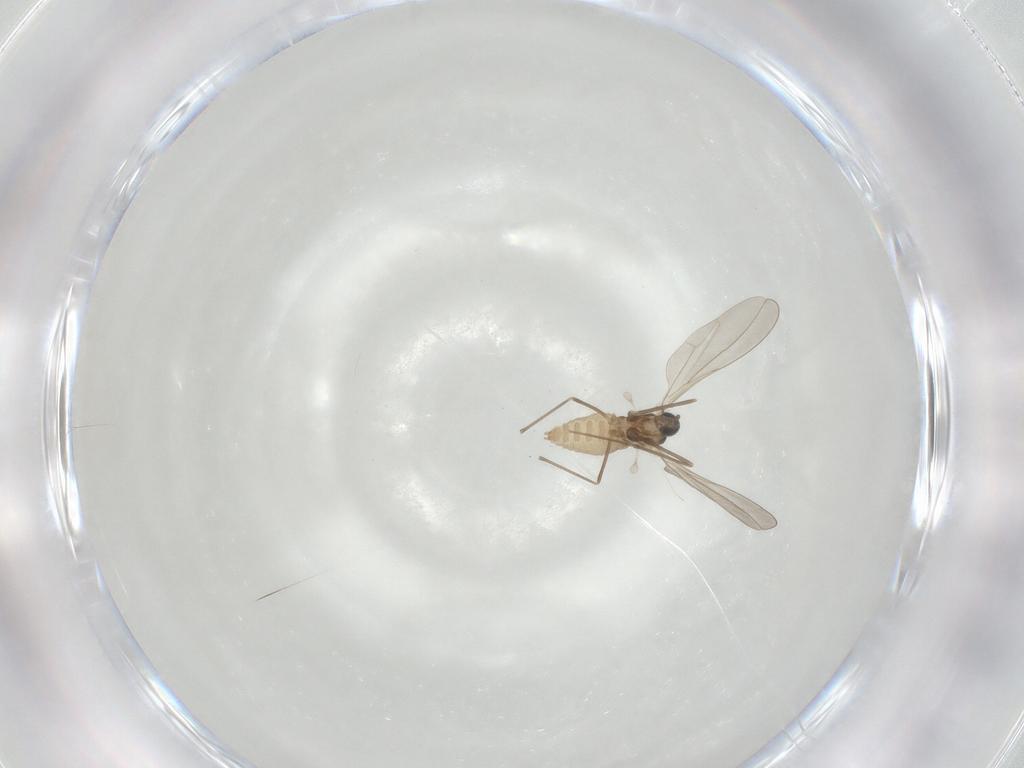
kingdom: Animalia
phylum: Arthropoda
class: Insecta
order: Diptera
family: Cecidomyiidae
